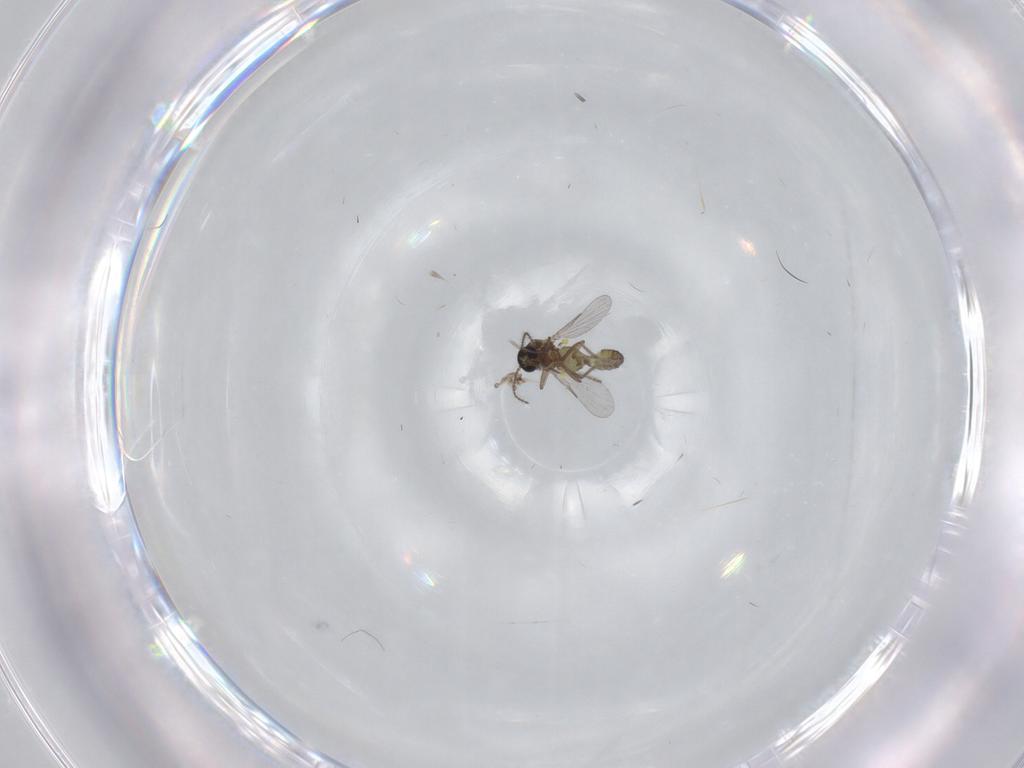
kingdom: Animalia
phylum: Arthropoda
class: Insecta
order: Diptera
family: Ceratopogonidae
